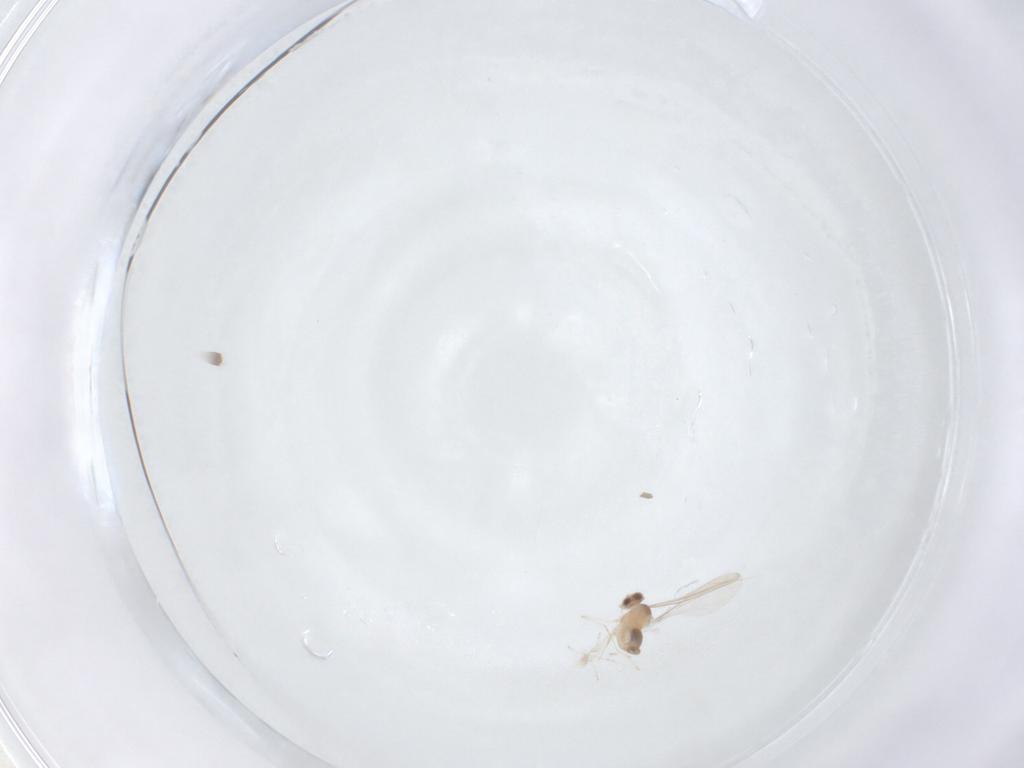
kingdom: Animalia
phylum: Arthropoda
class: Insecta
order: Diptera
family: Cecidomyiidae
